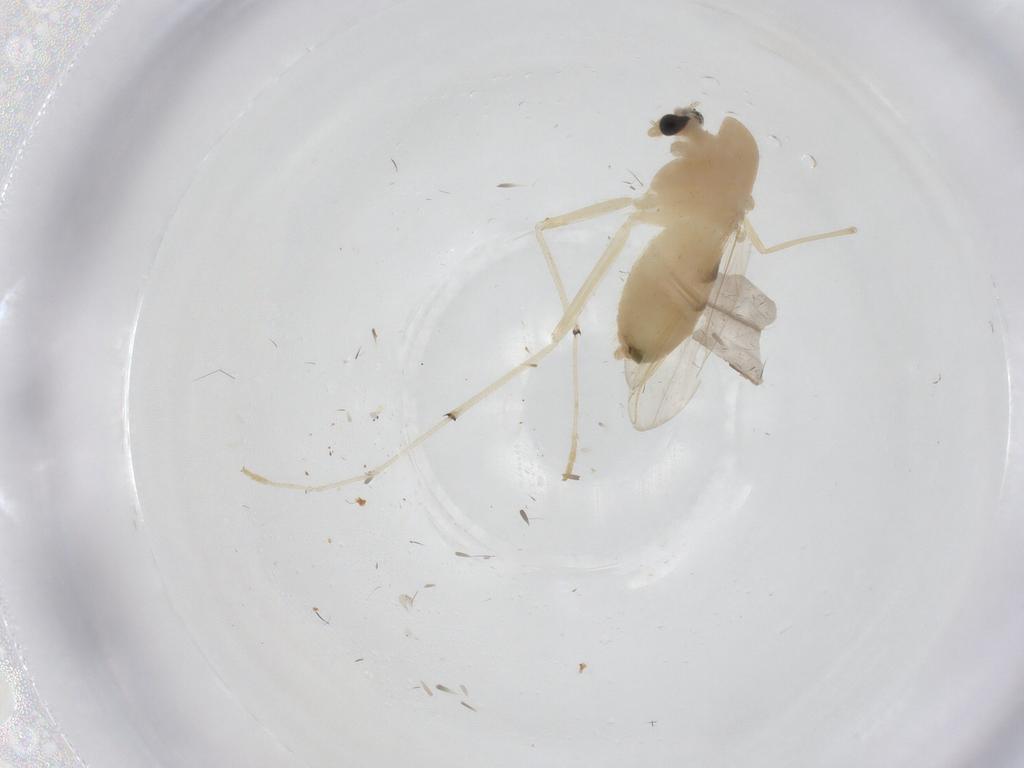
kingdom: Animalia
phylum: Arthropoda
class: Insecta
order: Diptera
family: Chironomidae
